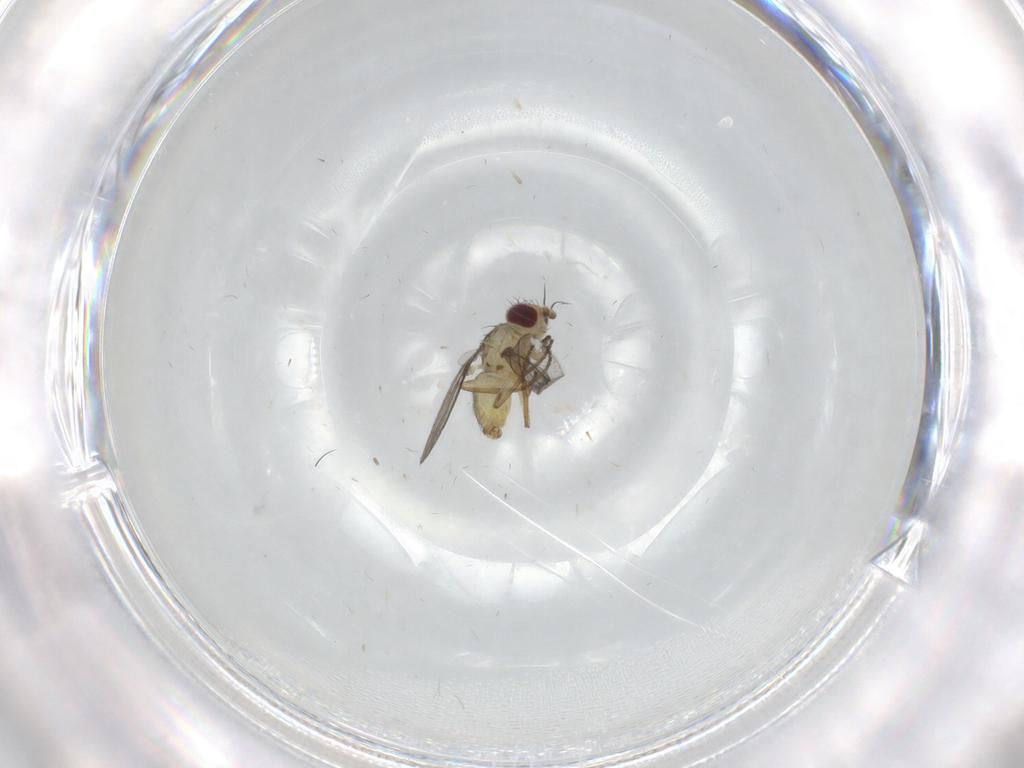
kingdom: Animalia
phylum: Arthropoda
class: Insecta
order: Diptera
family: Agromyzidae
